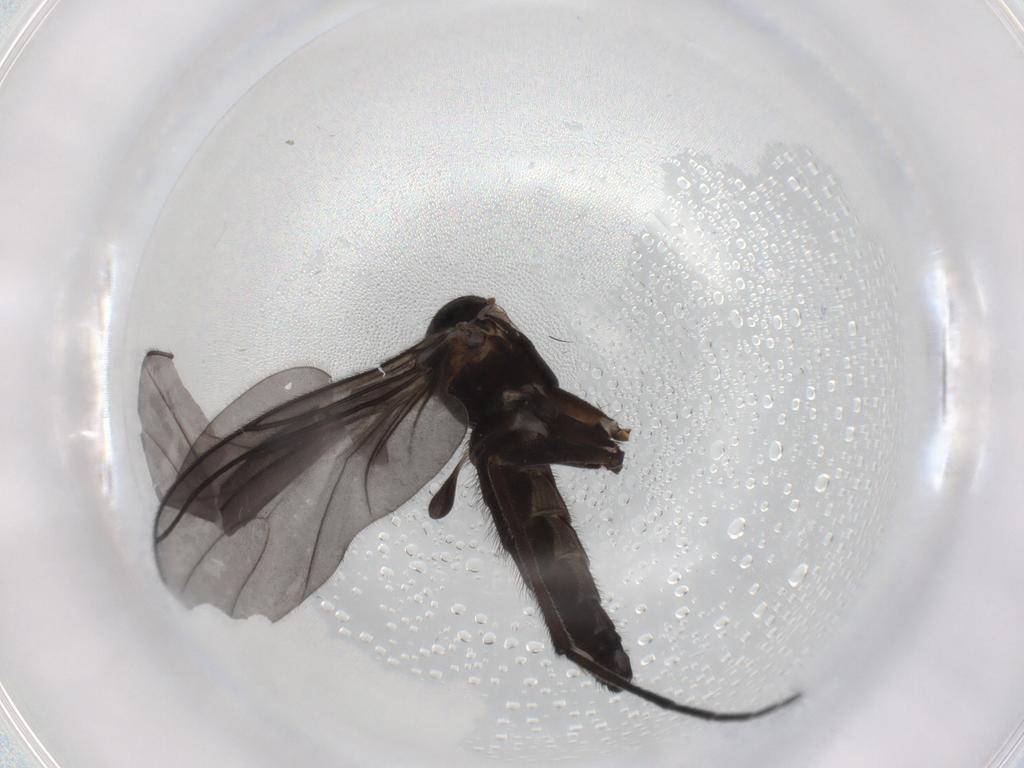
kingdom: Animalia
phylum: Arthropoda
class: Insecta
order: Diptera
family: Sciaridae
